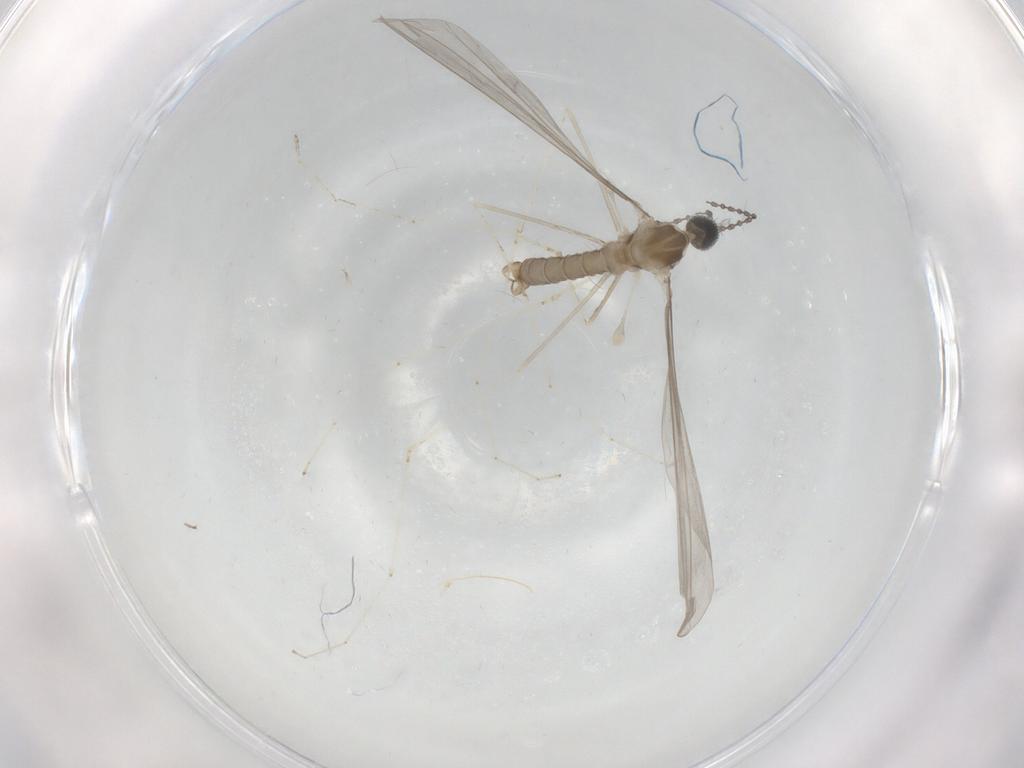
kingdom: Animalia
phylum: Arthropoda
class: Insecta
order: Diptera
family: Cecidomyiidae
